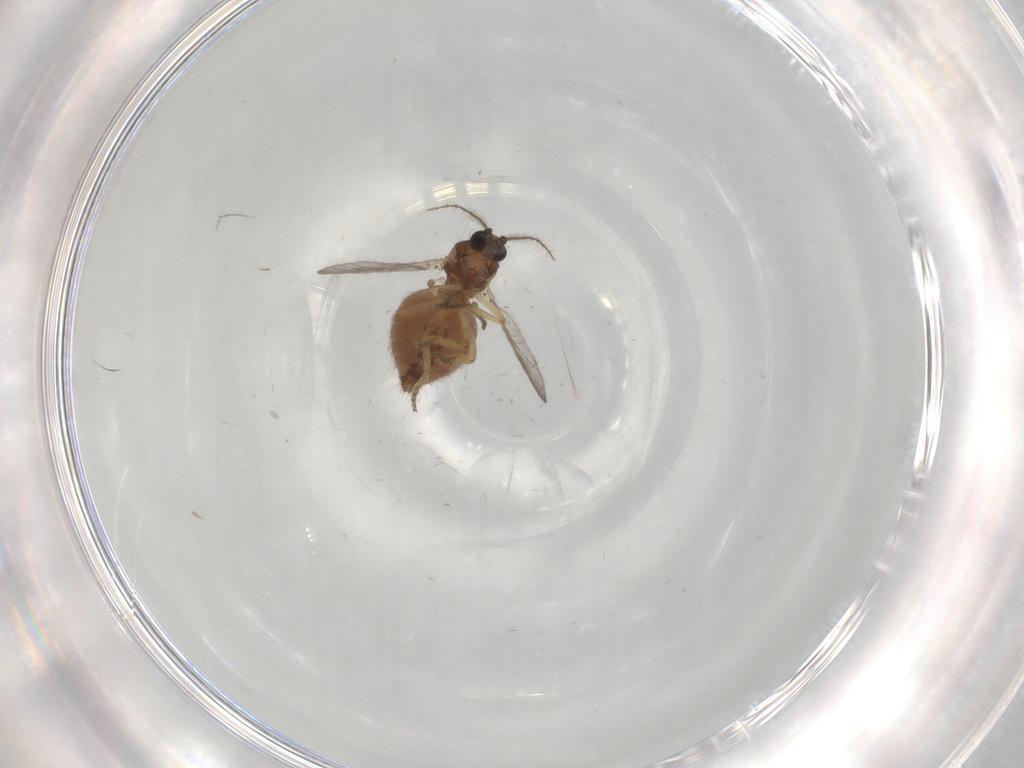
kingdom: Animalia
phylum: Arthropoda
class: Insecta
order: Diptera
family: Ceratopogonidae
